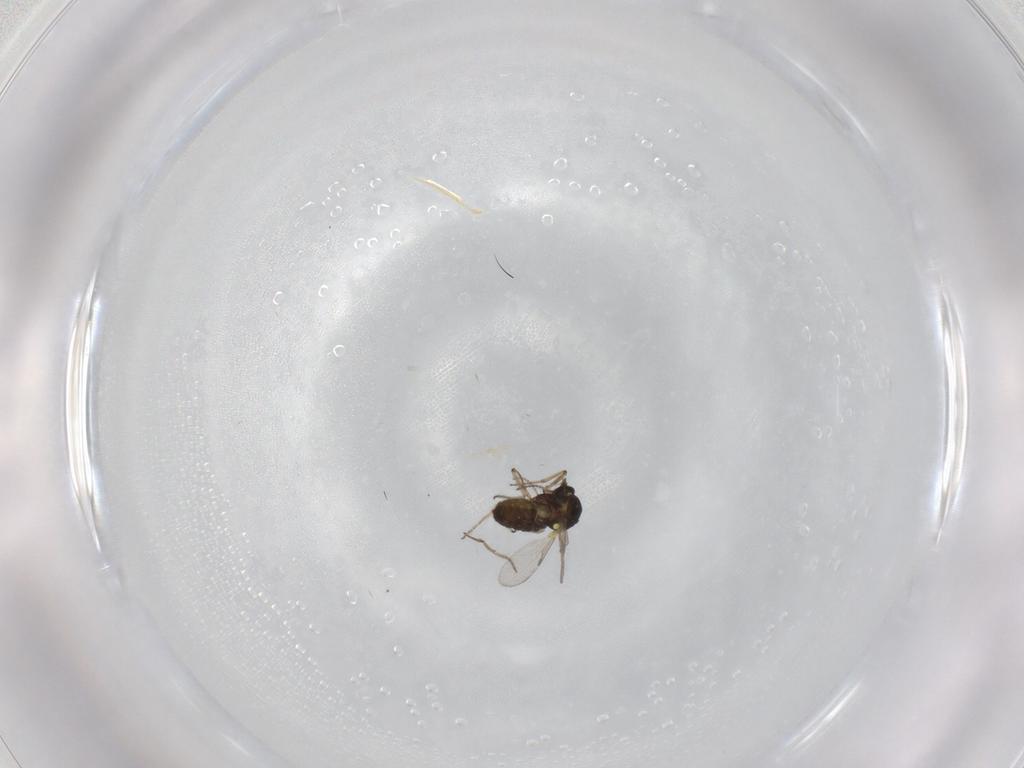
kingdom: Animalia
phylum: Arthropoda
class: Insecta
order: Diptera
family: Ceratopogonidae
